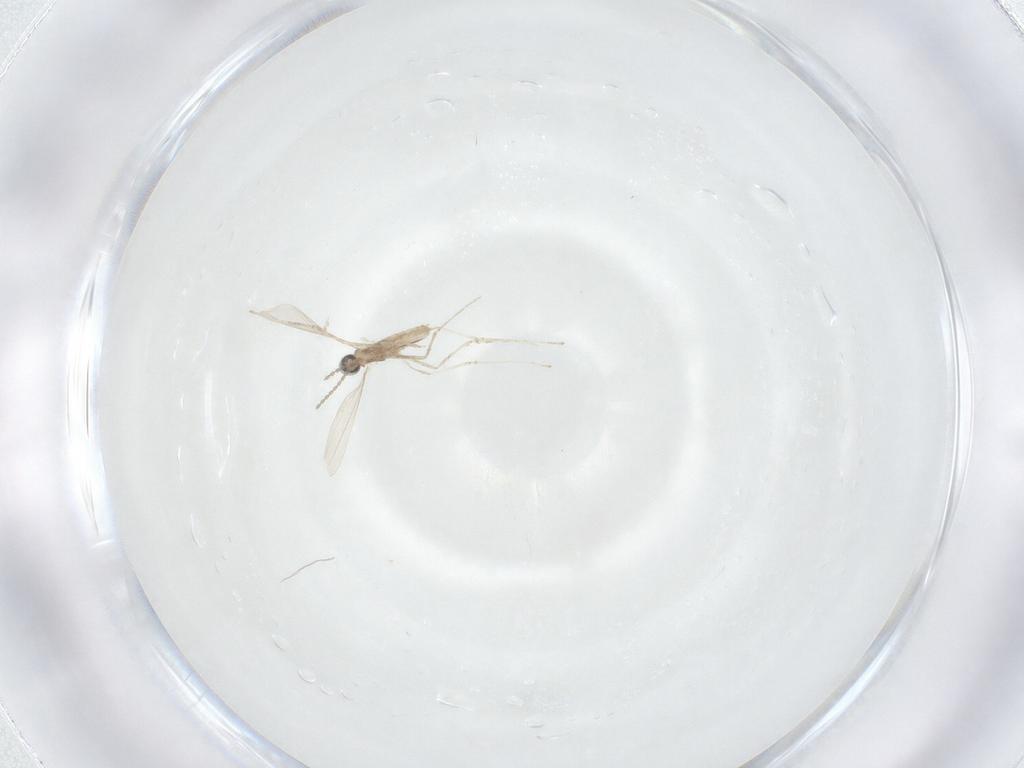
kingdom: Animalia
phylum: Arthropoda
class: Insecta
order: Diptera
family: Cecidomyiidae
